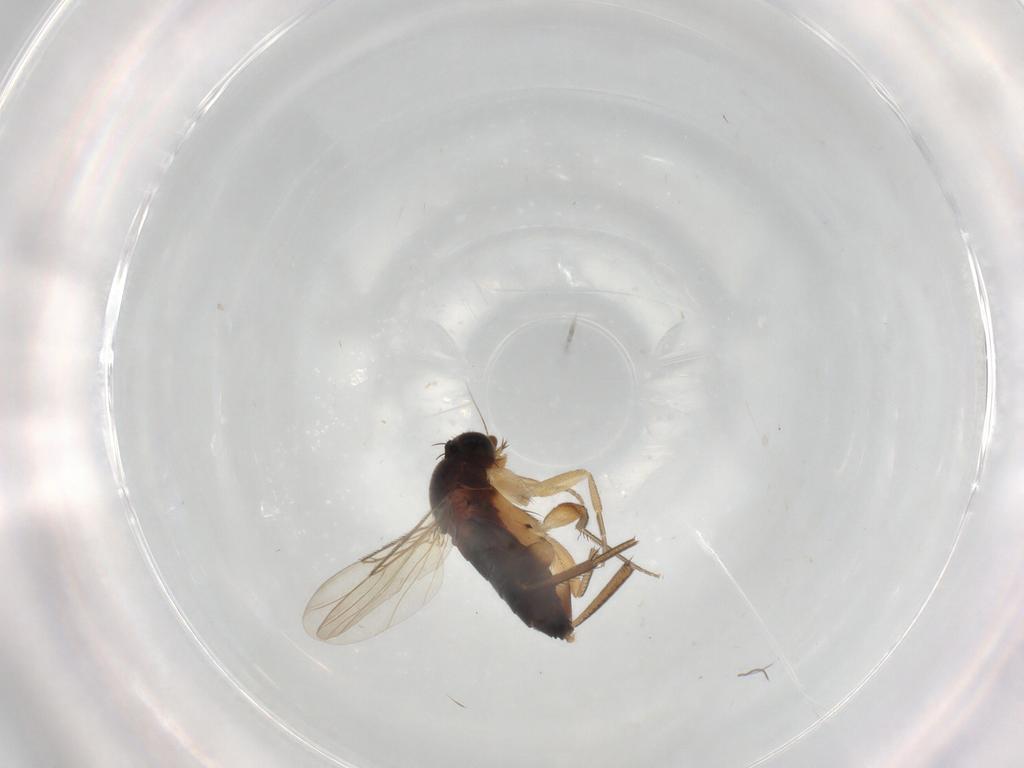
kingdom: Animalia
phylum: Arthropoda
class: Insecta
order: Diptera
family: Phoridae
